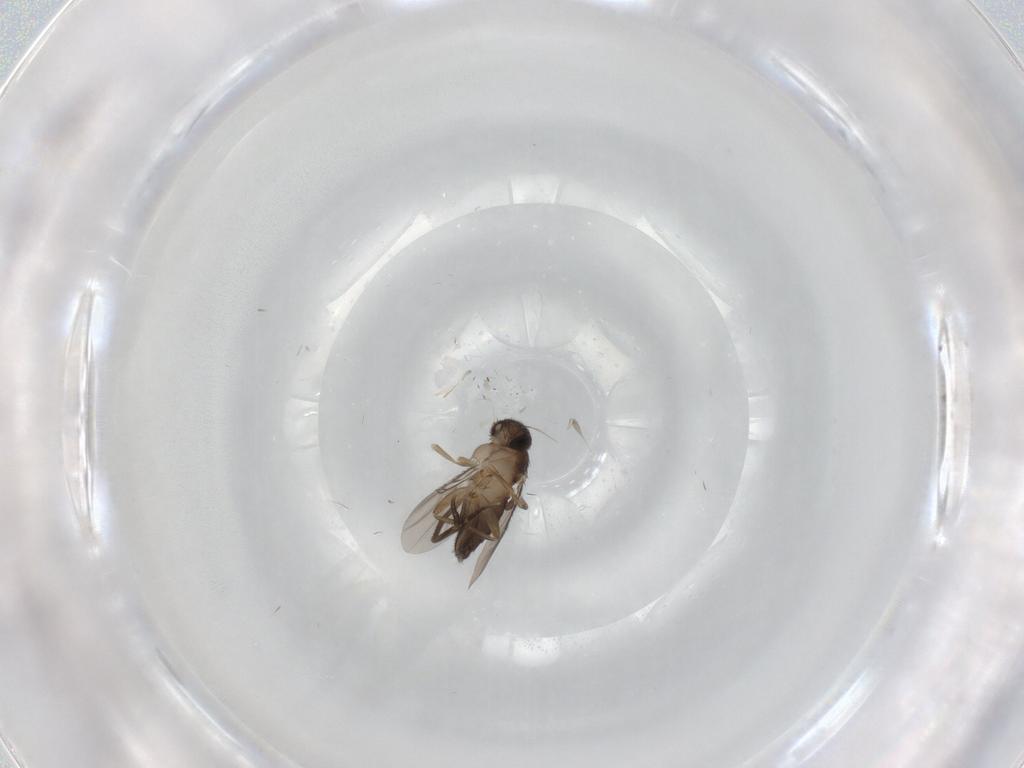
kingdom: Animalia
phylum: Arthropoda
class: Insecta
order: Diptera
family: Phoridae
